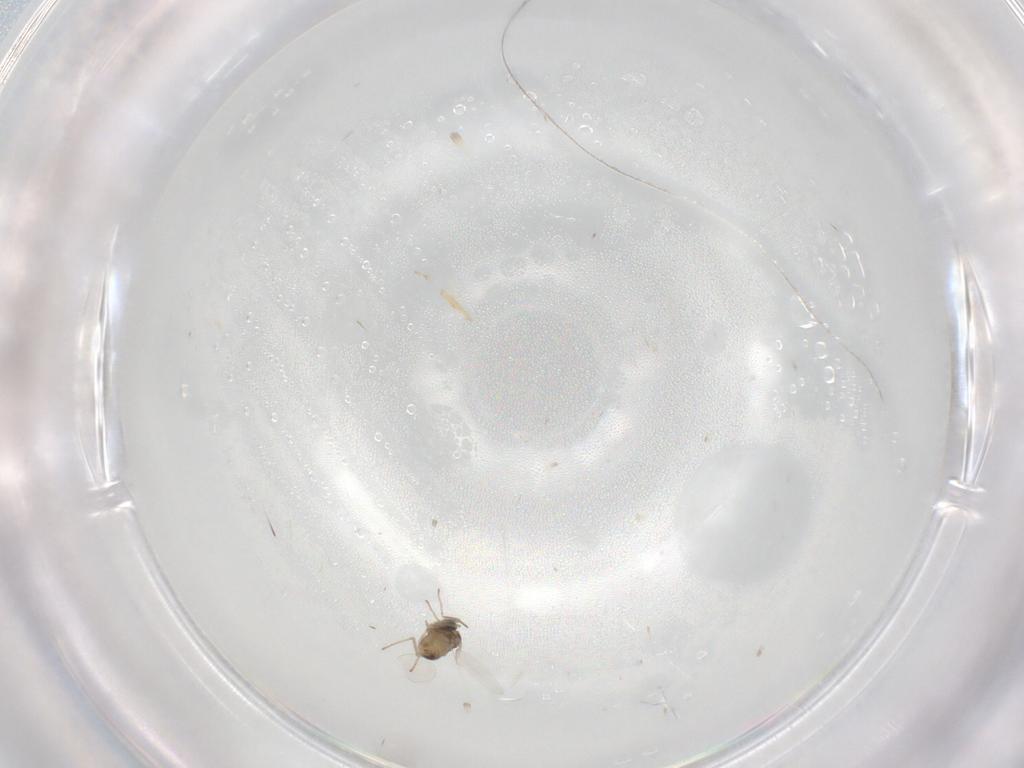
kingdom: Animalia
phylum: Arthropoda
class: Insecta
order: Diptera
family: Cecidomyiidae
